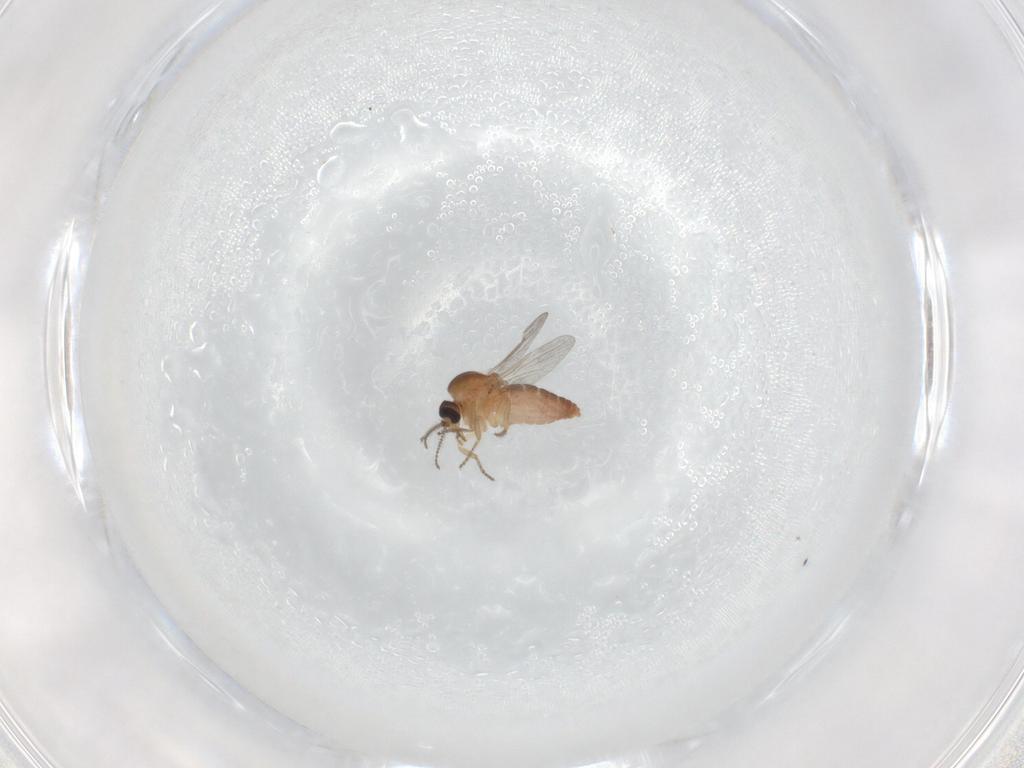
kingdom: Animalia
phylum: Arthropoda
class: Insecta
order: Diptera
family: Ceratopogonidae
